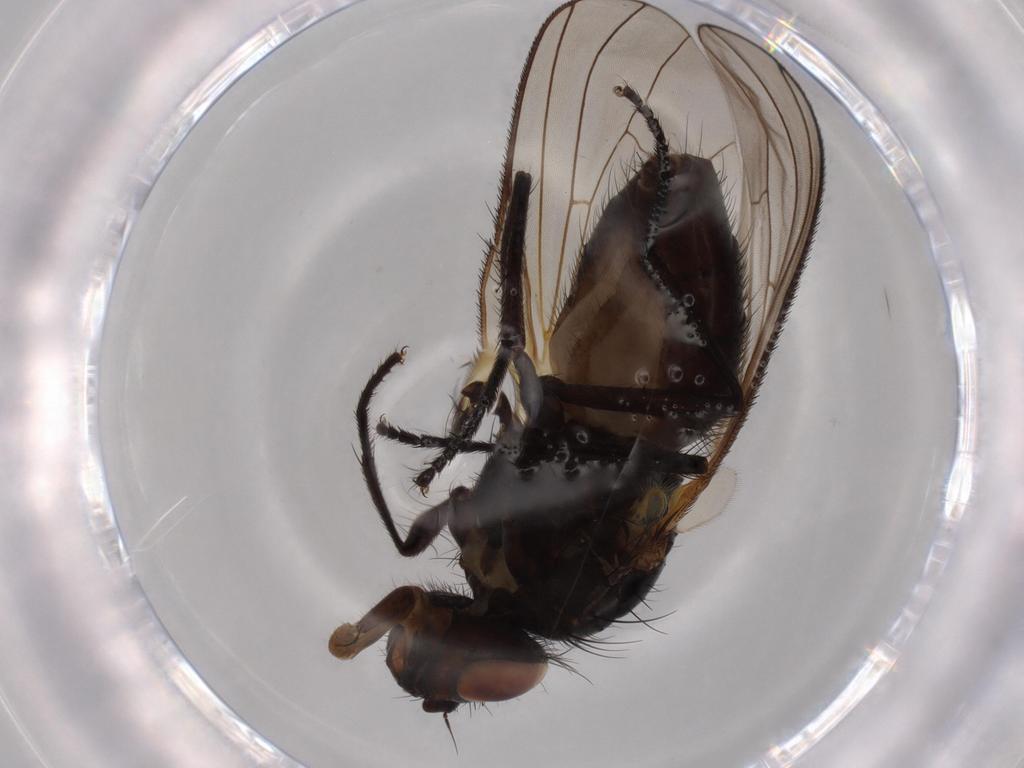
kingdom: Animalia
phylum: Arthropoda
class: Insecta
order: Diptera
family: Fannia
